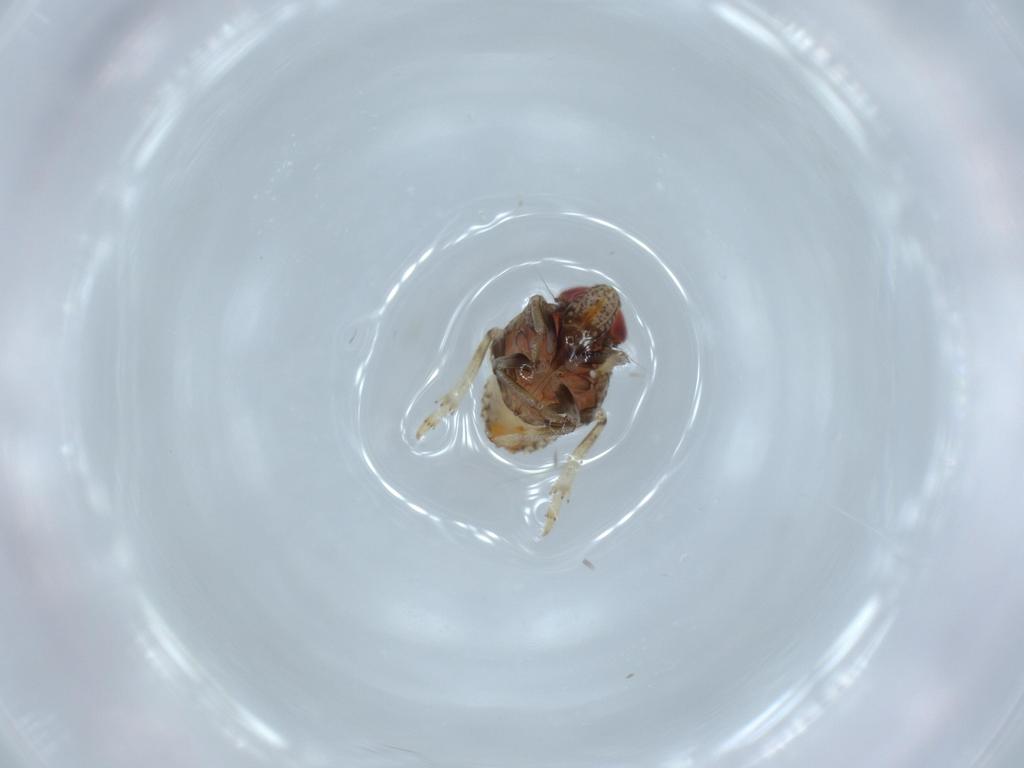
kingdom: Animalia
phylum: Arthropoda
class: Insecta
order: Hemiptera
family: Issidae
